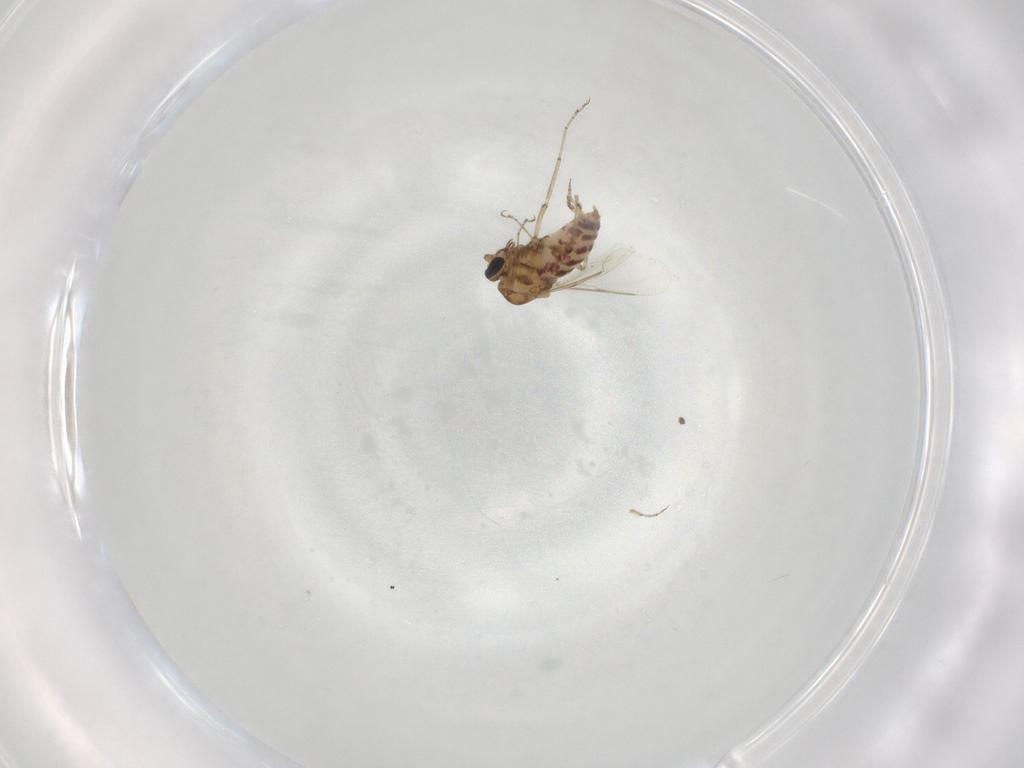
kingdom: Animalia
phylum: Arthropoda
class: Insecta
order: Diptera
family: Ceratopogonidae
